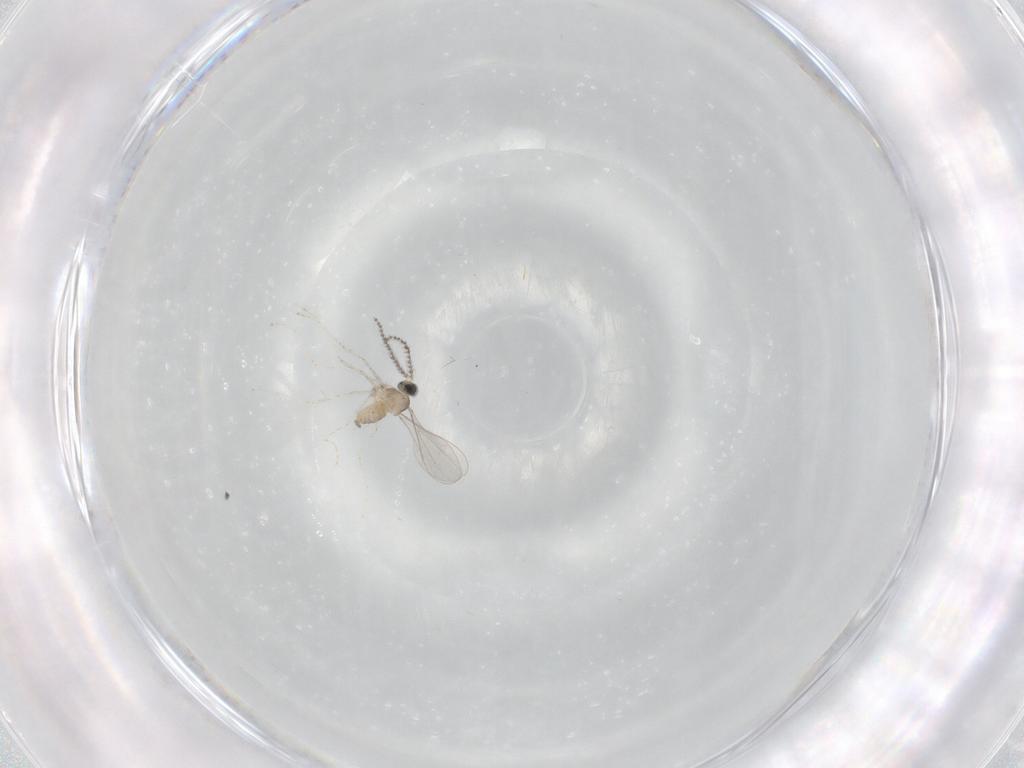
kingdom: Animalia
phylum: Arthropoda
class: Insecta
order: Diptera
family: Cecidomyiidae
